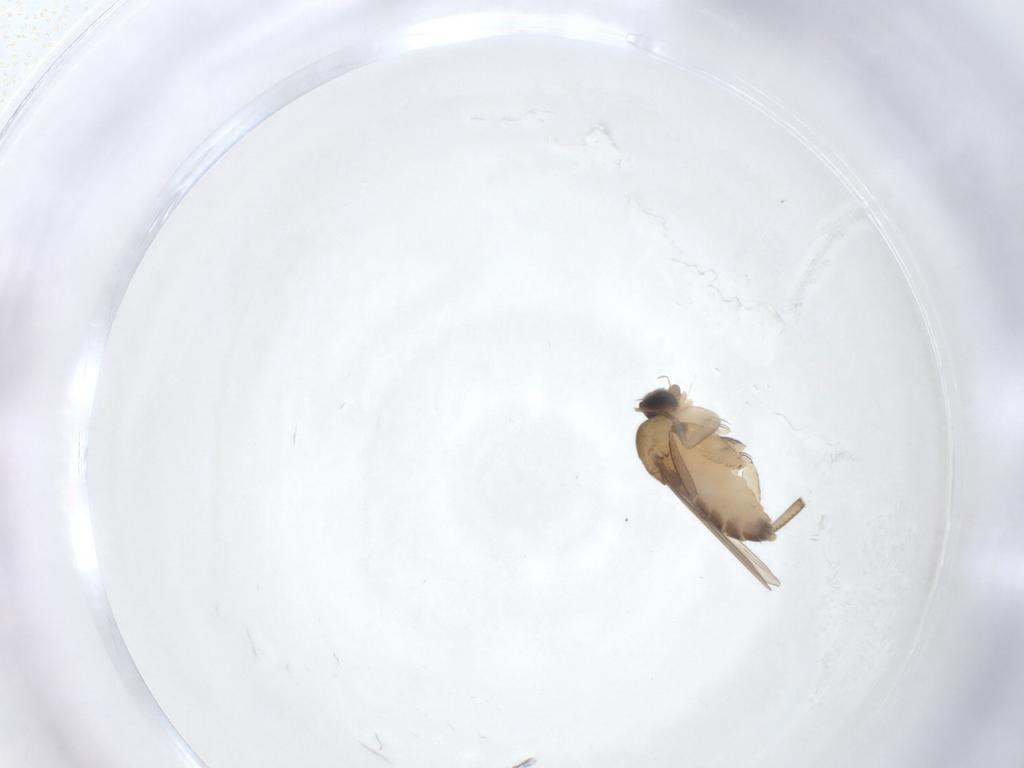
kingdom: Animalia
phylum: Arthropoda
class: Insecta
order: Diptera
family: Phoridae
